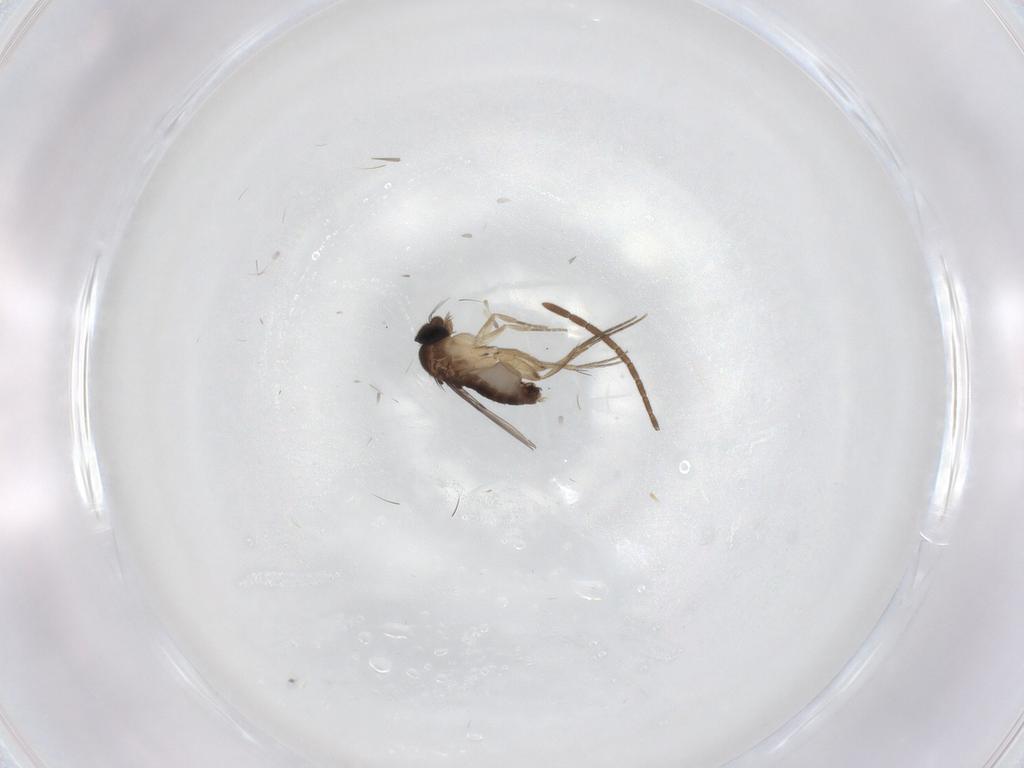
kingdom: Animalia
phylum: Arthropoda
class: Insecta
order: Diptera
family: Phoridae
